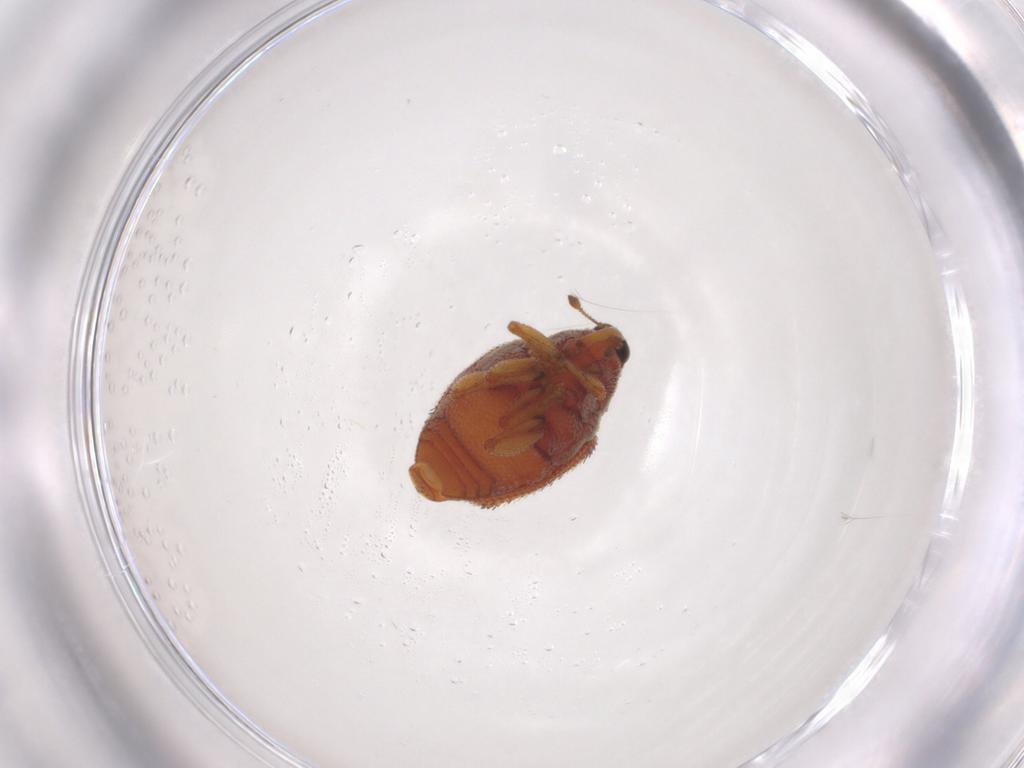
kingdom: Animalia
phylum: Arthropoda
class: Insecta
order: Coleoptera
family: Curculionidae
